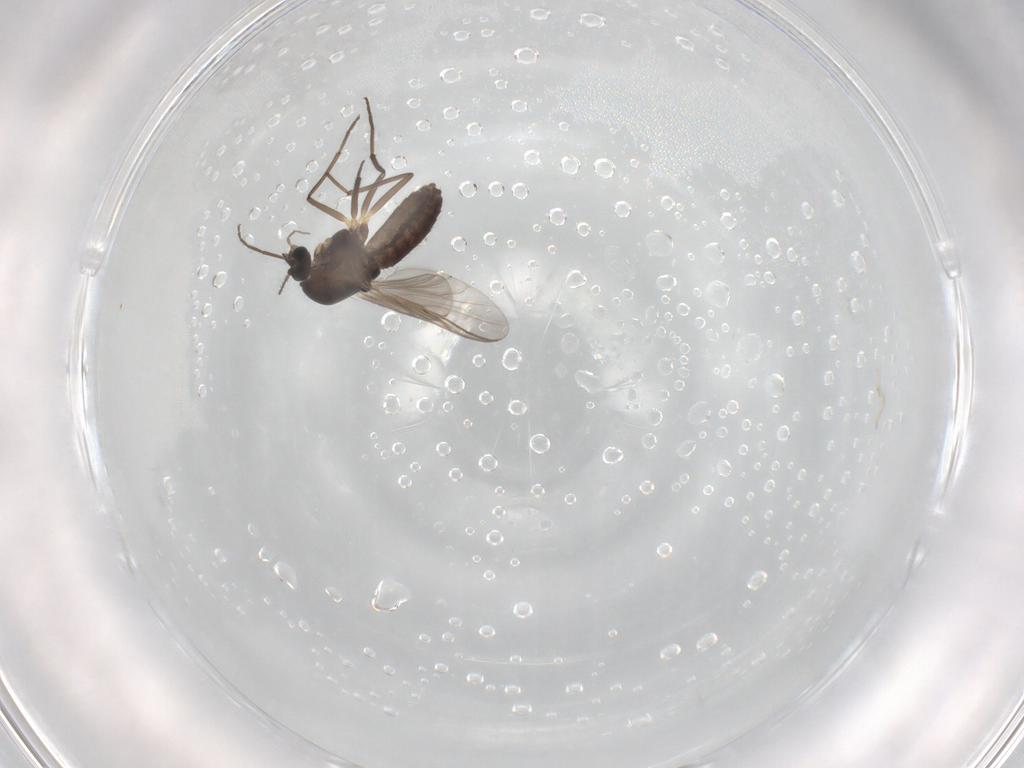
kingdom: Animalia
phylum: Arthropoda
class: Insecta
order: Diptera
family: Chironomidae
